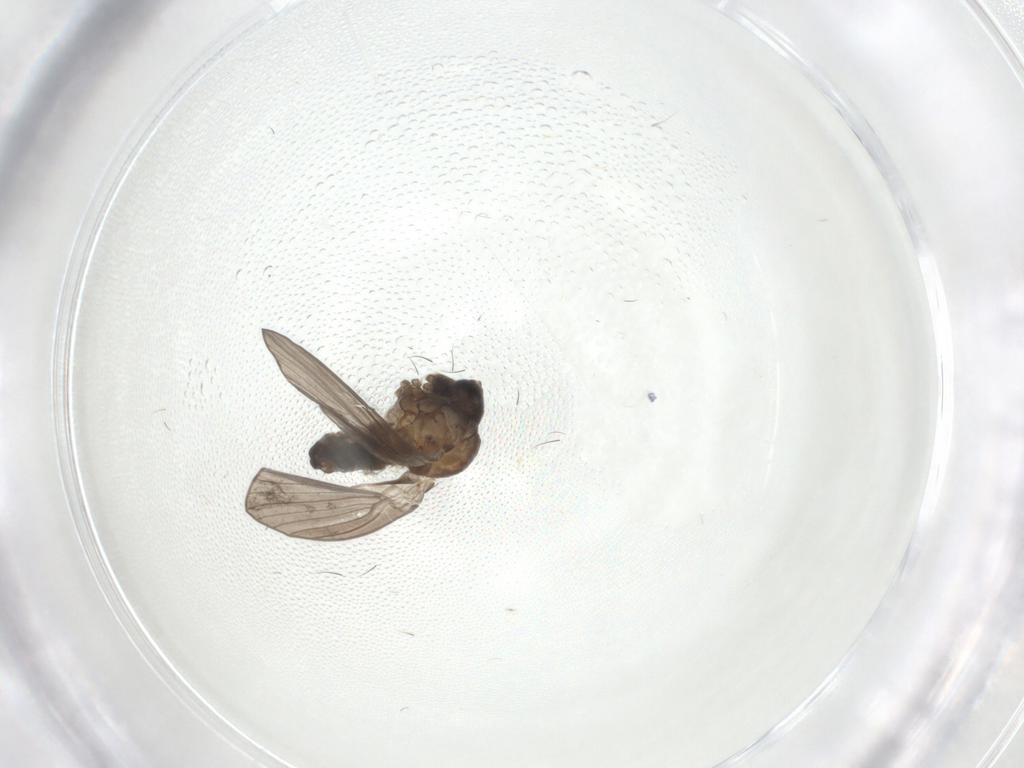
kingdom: Animalia
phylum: Arthropoda
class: Insecta
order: Diptera
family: Psychodidae
